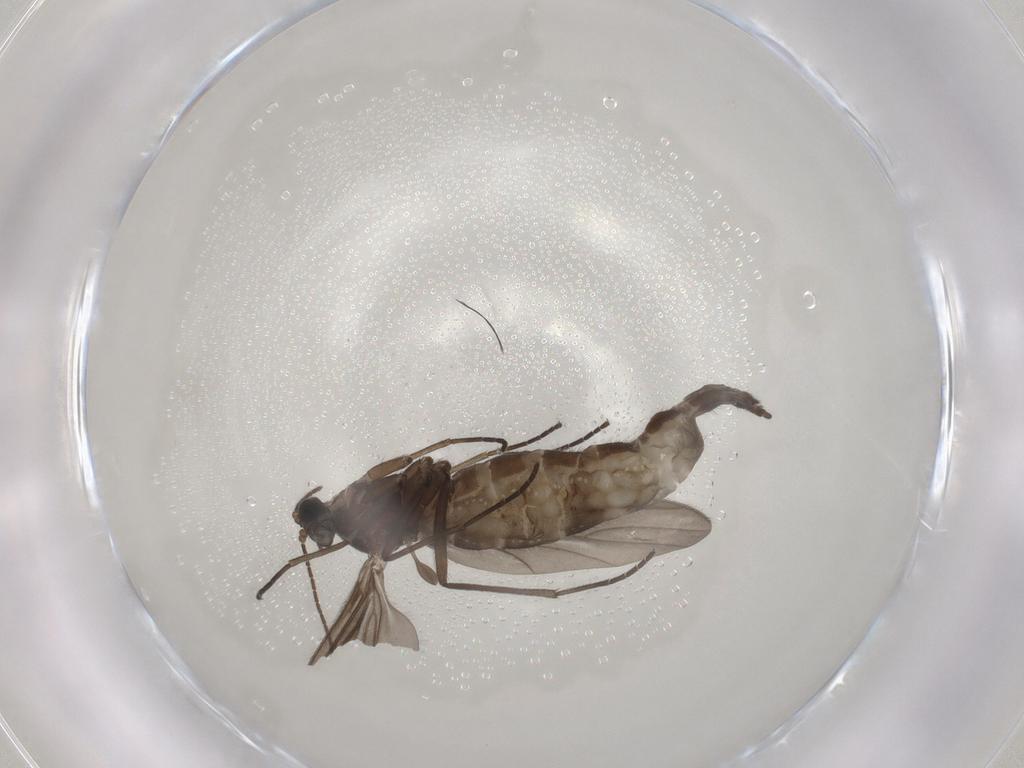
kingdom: Animalia
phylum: Arthropoda
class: Insecta
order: Diptera
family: Sciaridae
